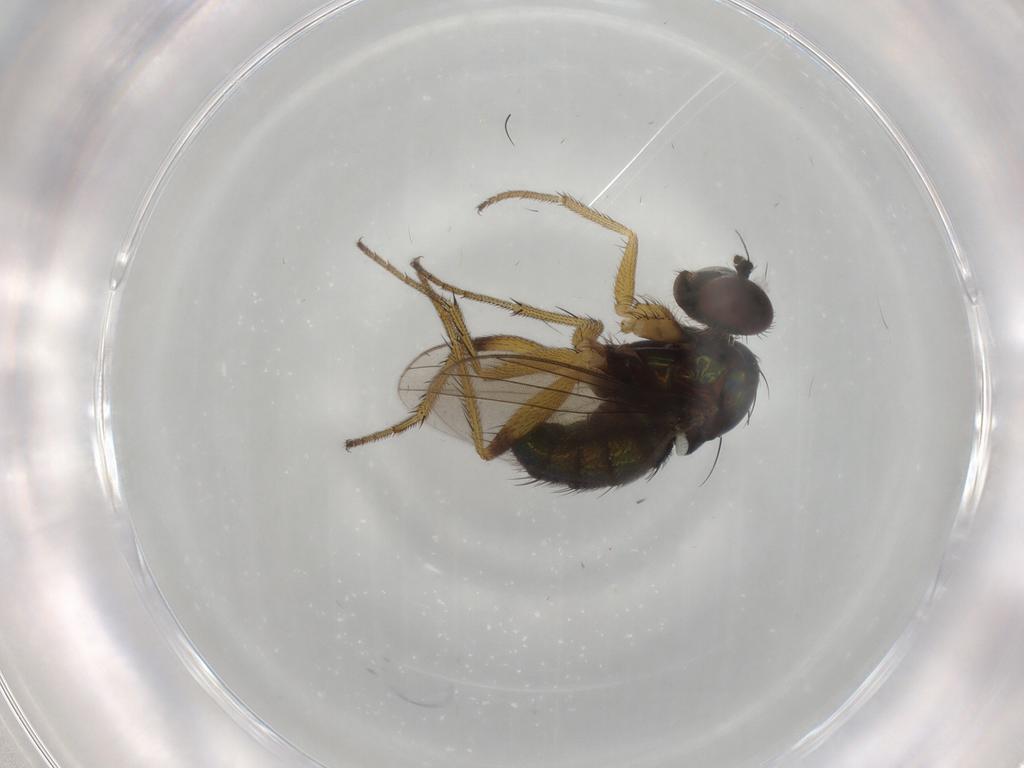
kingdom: Animalia
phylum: Arthropoda
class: Insecta
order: Diptera
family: Dolichopodidae
